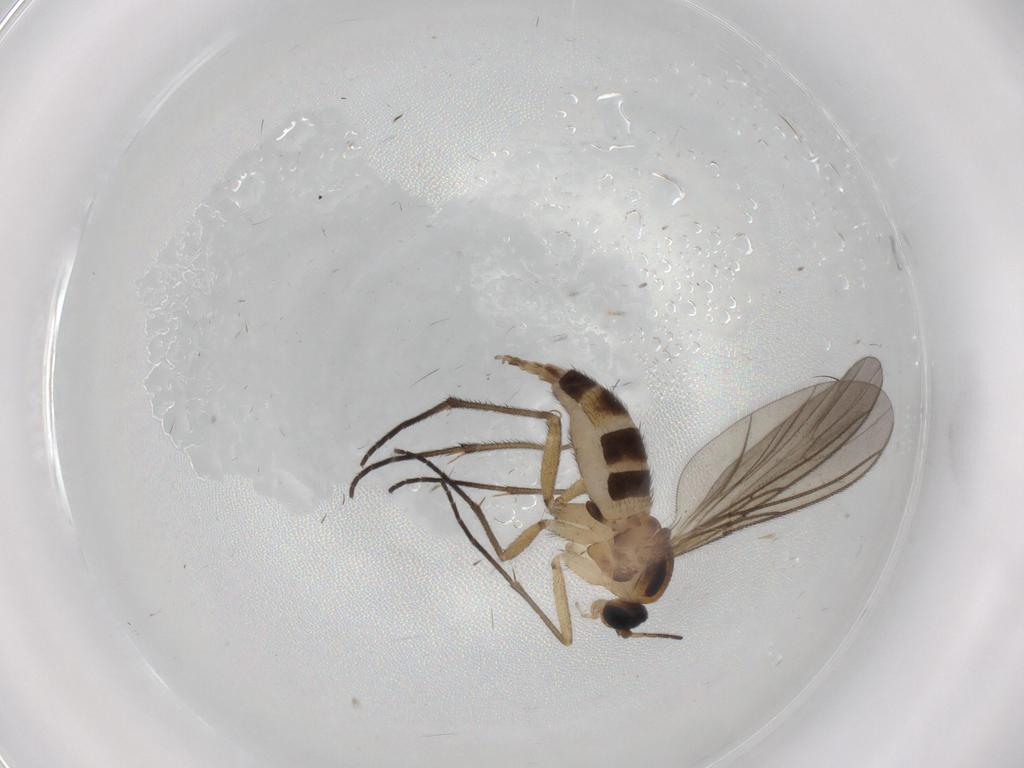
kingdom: Animalia
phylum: Arthropoda
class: Insecta
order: Diptera
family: Sciaridae
